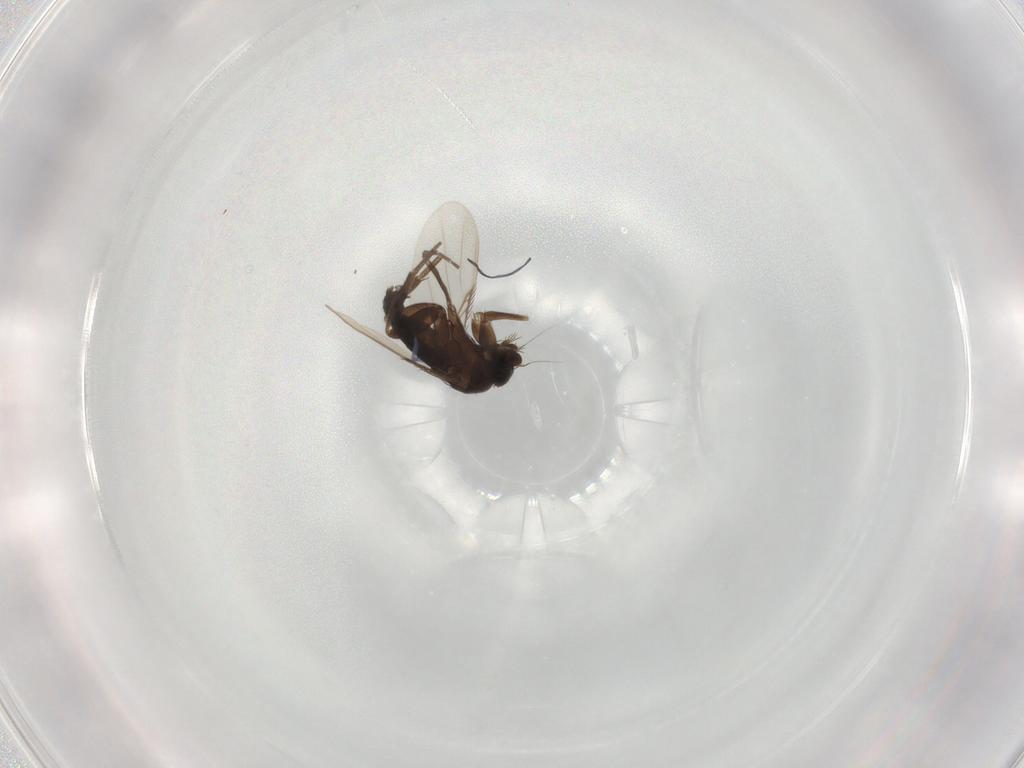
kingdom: Animalia
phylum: Arthropoda
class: Insecta
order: Diptera
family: Phoridae
